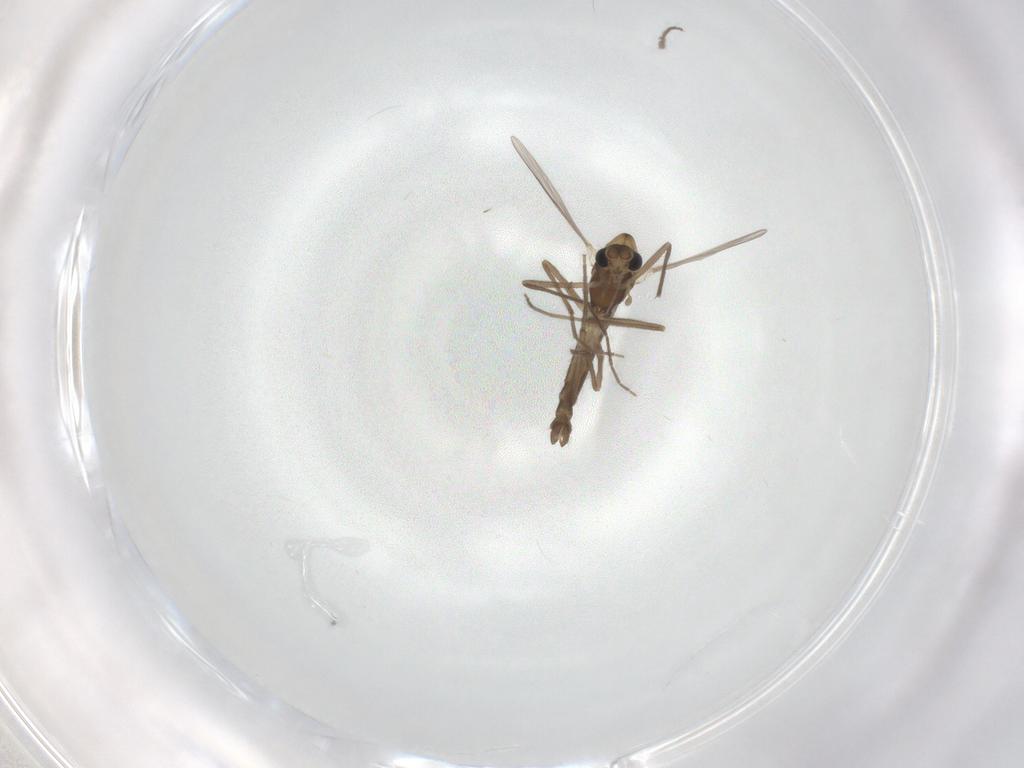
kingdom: Animalia
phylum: Arthropoda
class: Insecta
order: Diptera
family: Chironomidae
